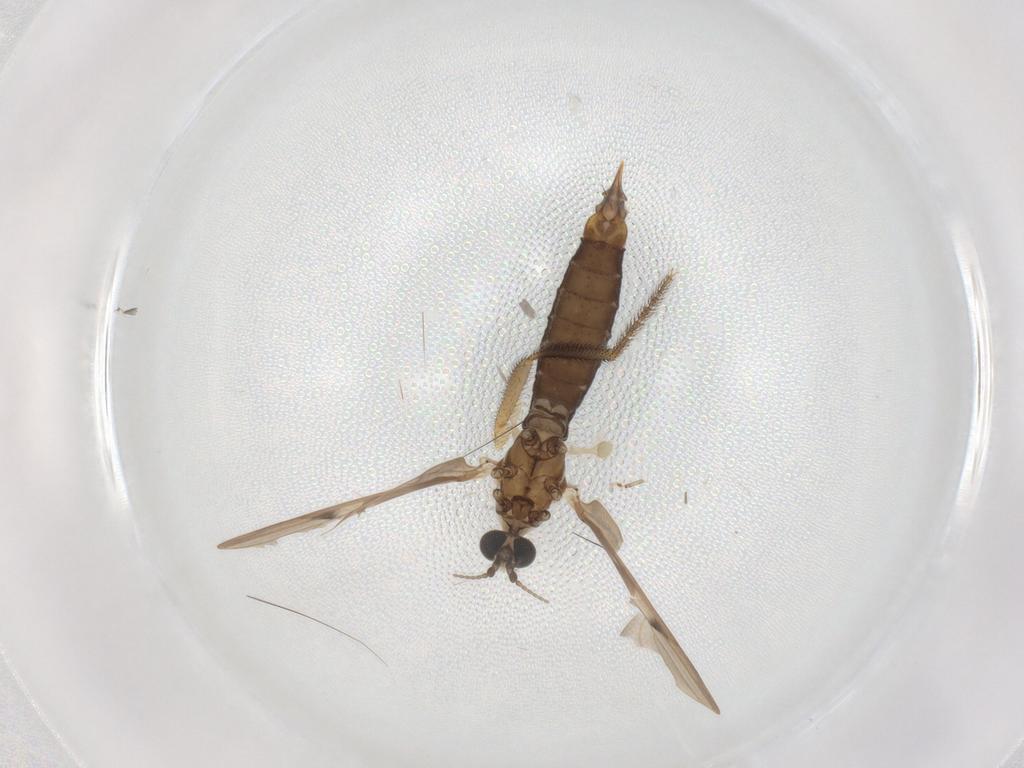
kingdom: Animalia
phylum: Arthropoda
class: Insecta
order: Diptera
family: Limoniidae
